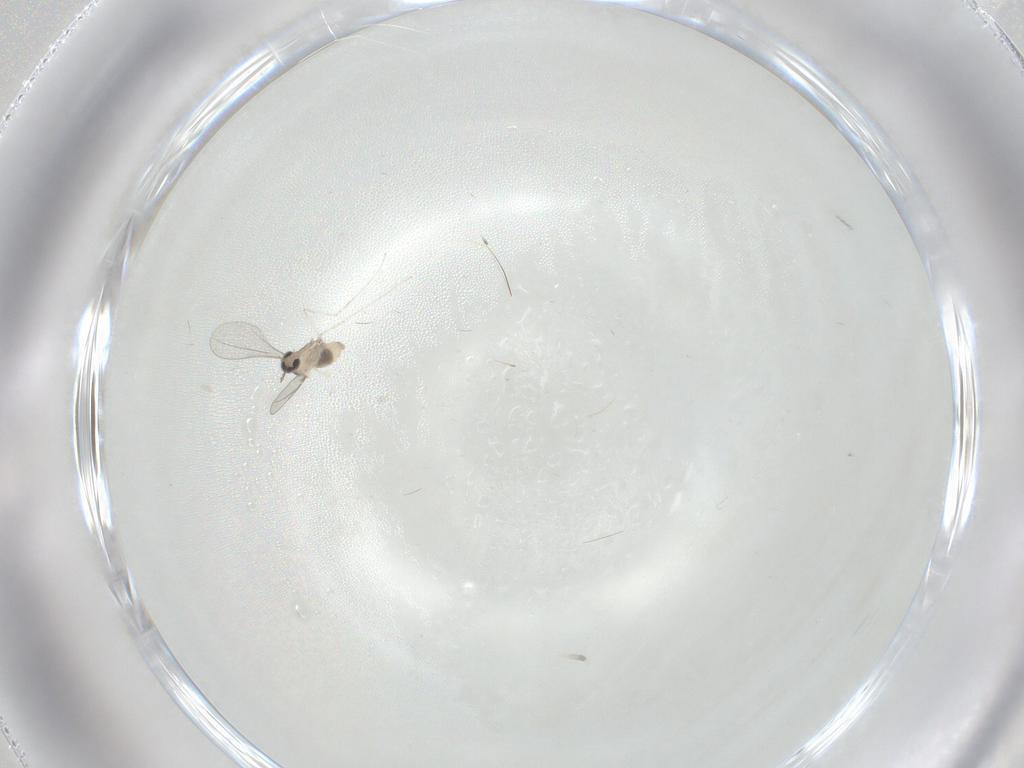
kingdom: Animalia
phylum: Arthropoda
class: Insecta
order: Diptera
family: Cecidomyiidae
